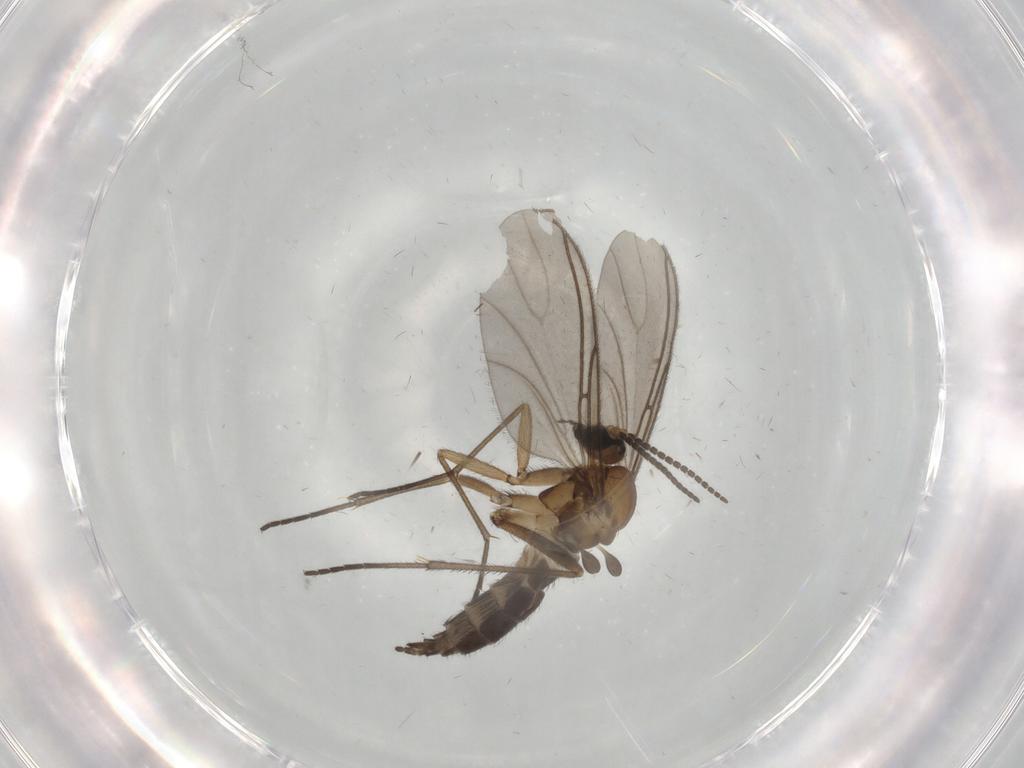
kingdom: Animalia
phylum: Arthropoda
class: Insecta
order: Diptera
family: Sciaridae
